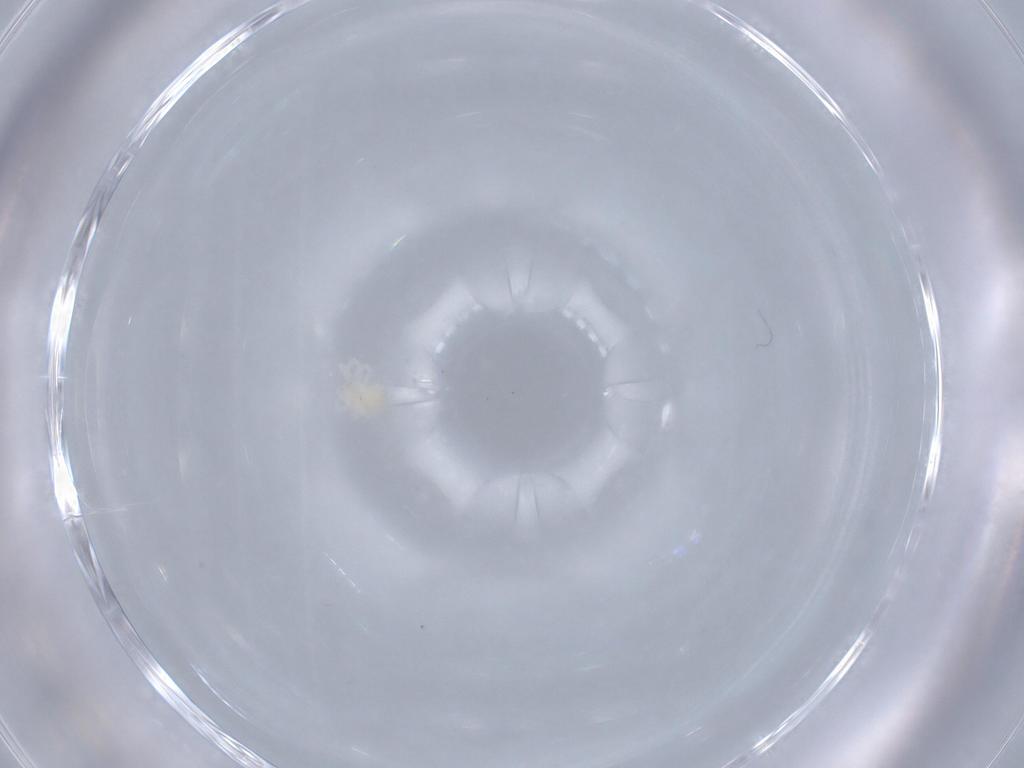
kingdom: Animalia
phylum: Arthropoda
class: Arachnida
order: Trombidiformes
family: Anystidae
